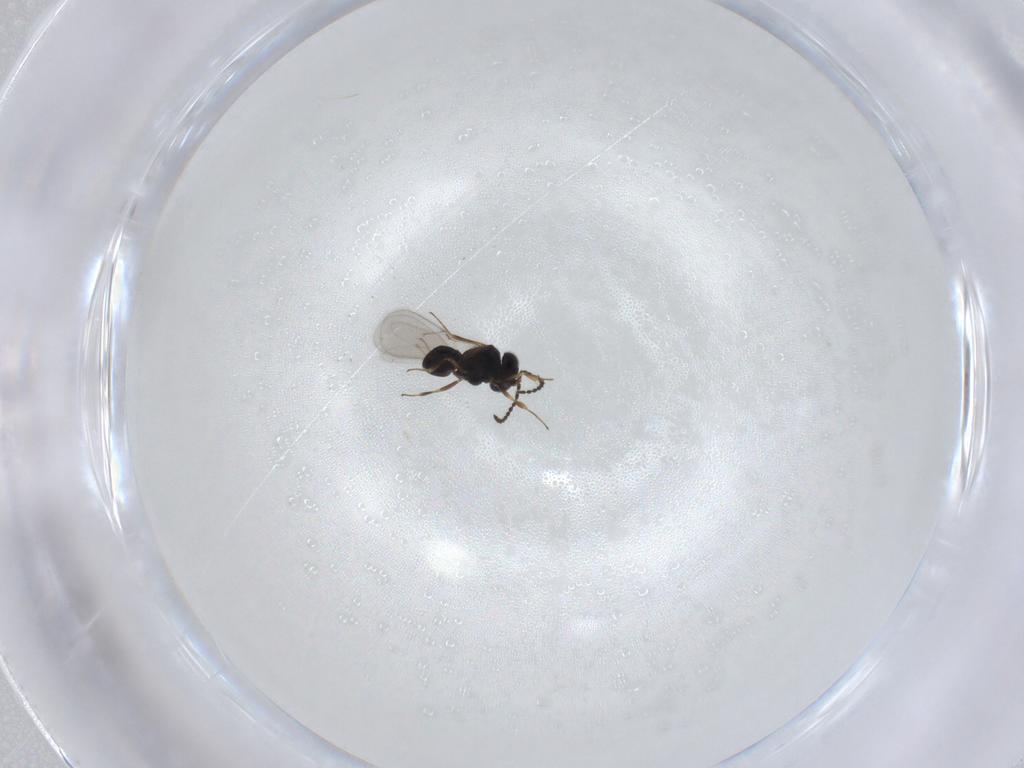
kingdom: Animalia
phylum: Arthropoda
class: Insecta
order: Hymenoptera
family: Scelionidae
